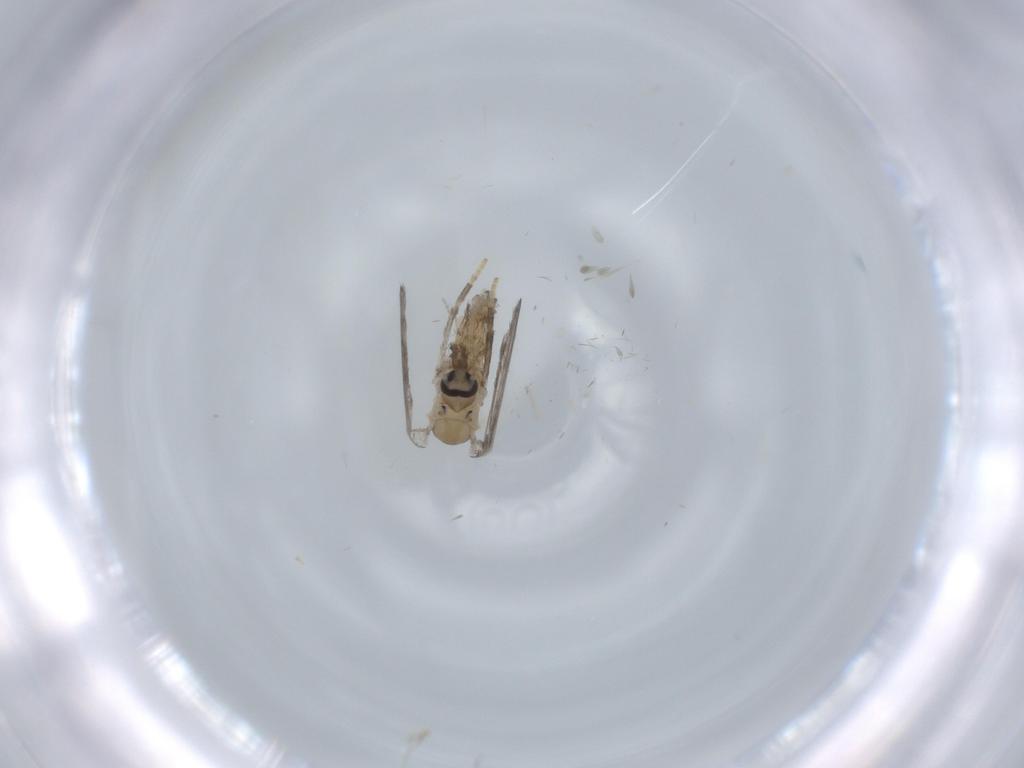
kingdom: Animalia
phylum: Arthropoda
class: Insecta
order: Diptera
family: Psychodidae
